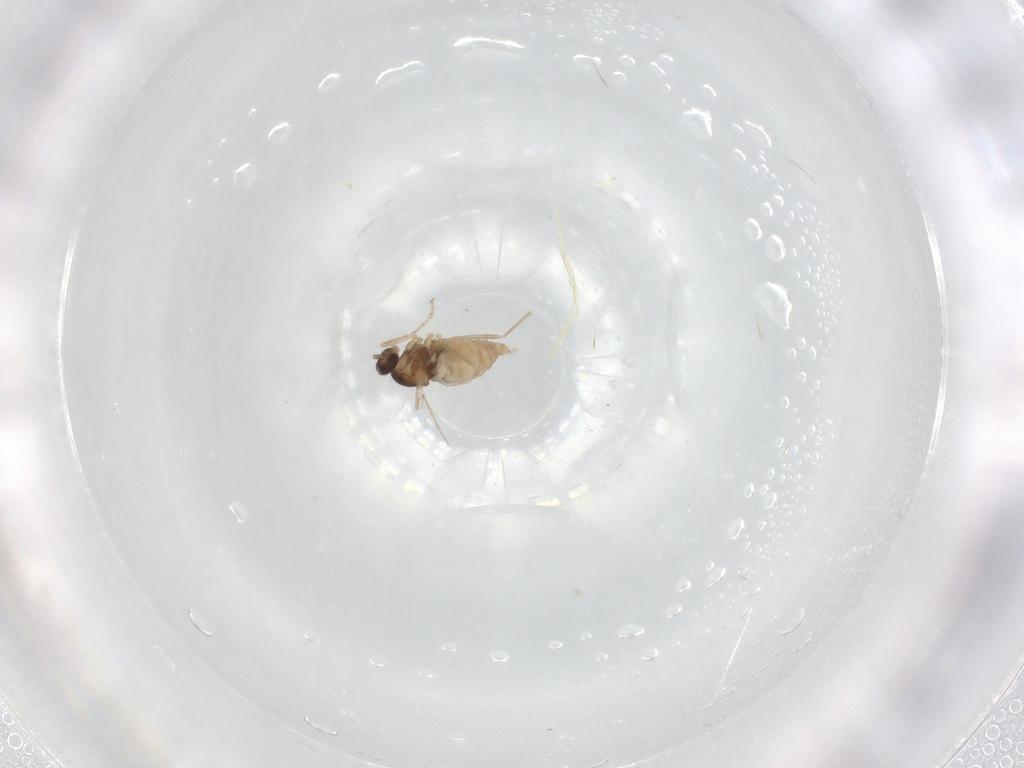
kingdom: Animalia
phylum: Arthropoda
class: Insecta
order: Diptera
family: Cecidomyiidae
